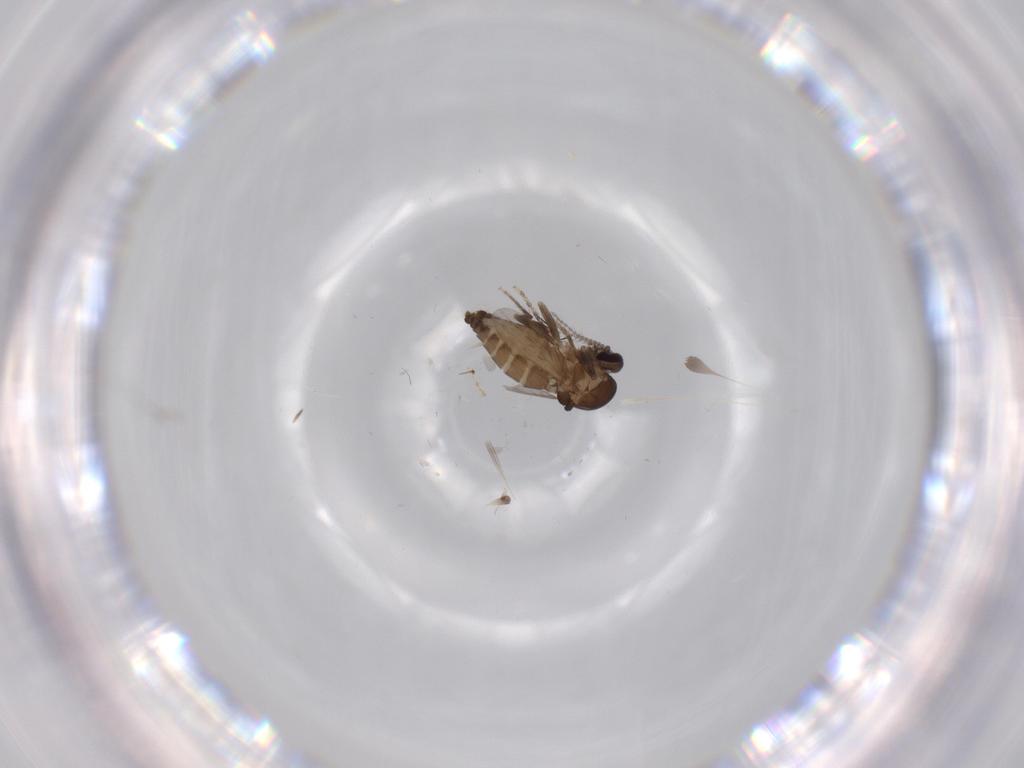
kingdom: Animalia
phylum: Arthropoda
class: Insecta
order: Diptera
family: Ceratopogonidae
